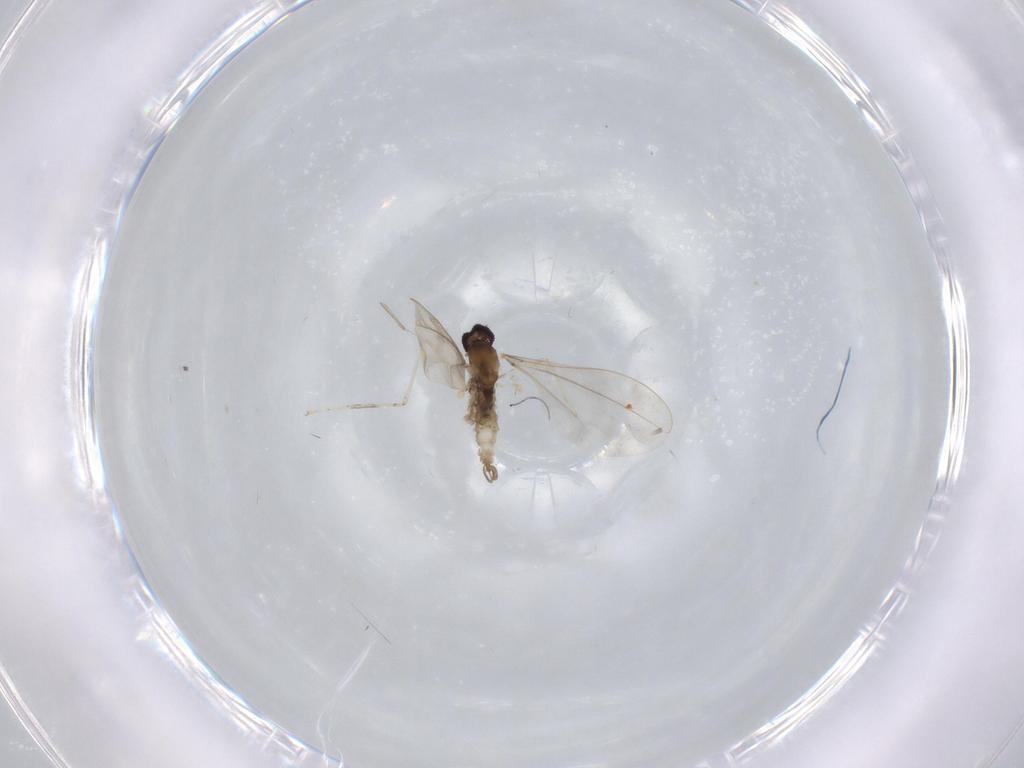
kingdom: Animalia
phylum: Arthropoda
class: Insecta
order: Diptera
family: Cecidomyiidae
